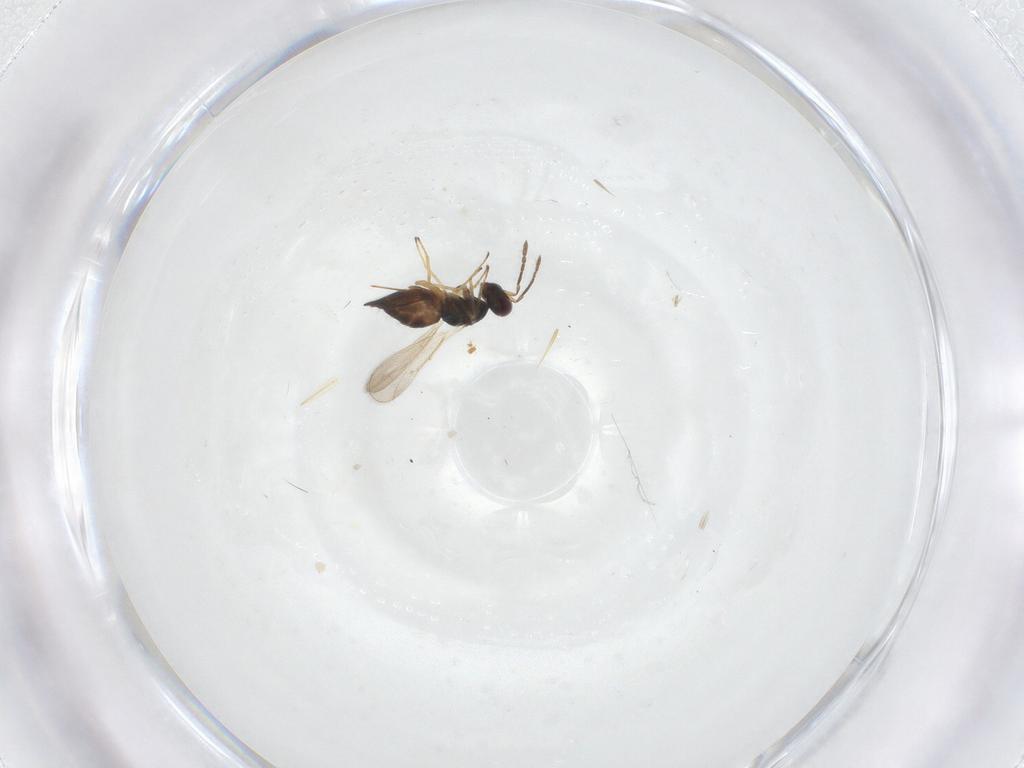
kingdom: Animalia
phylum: Arthropoda
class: Insecta
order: Hymenoptera
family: Eulophidae
